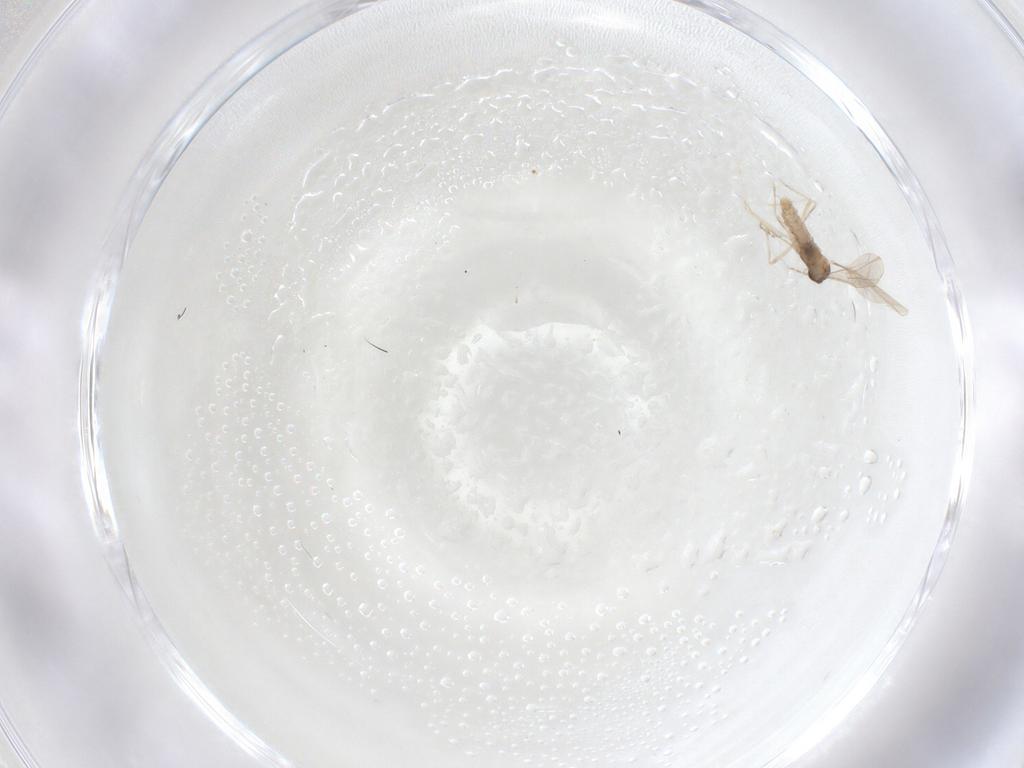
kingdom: Animalia
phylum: Arthropoda
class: Insecta
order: Diptera
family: Cecidomyiidae
